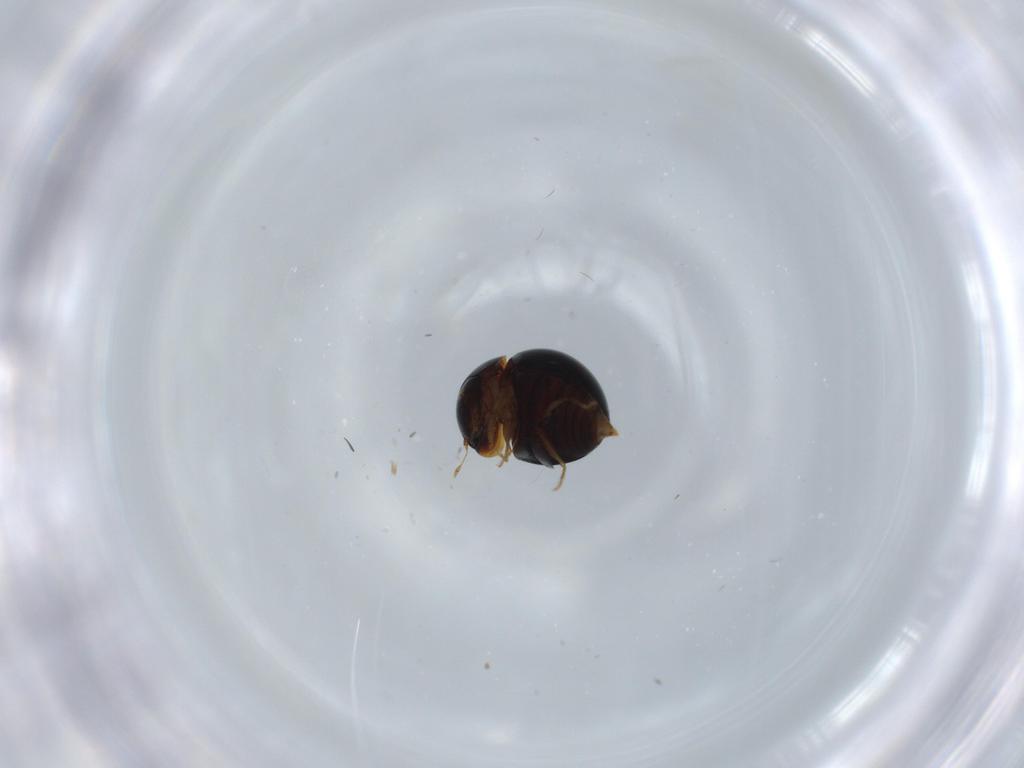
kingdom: Animalia
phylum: Arthropoda
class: Insecta
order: Coleoptera
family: Clambidae
